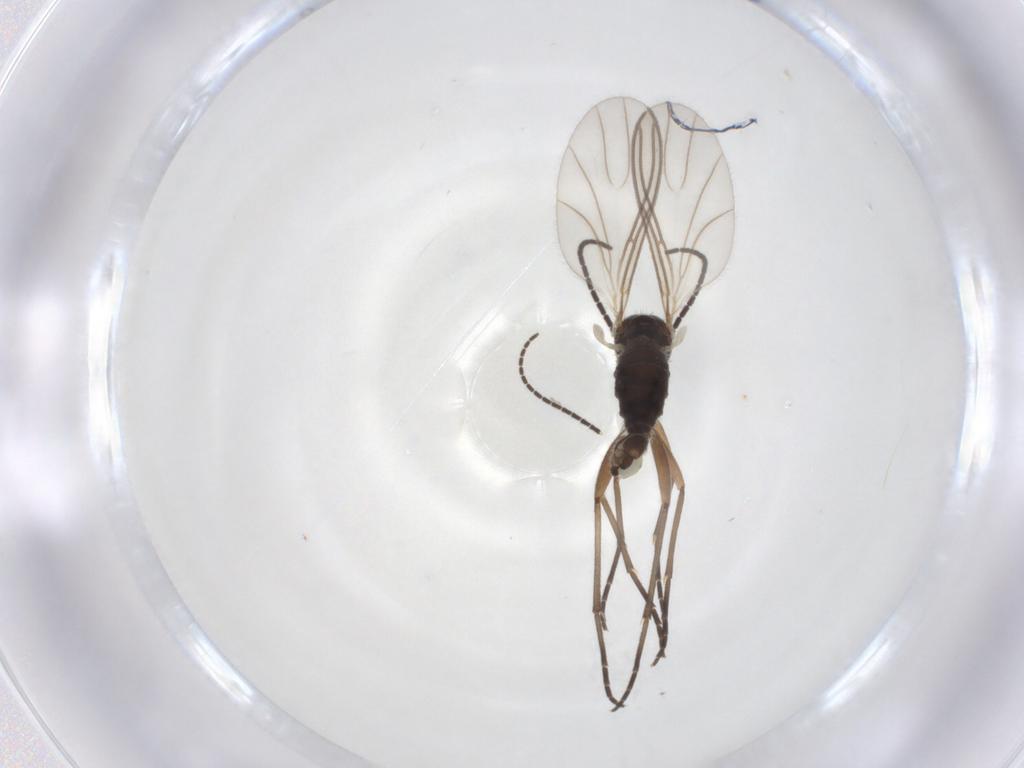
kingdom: Animalia
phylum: Arthropoda
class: Insecta
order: Diptera
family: Sciaridae
